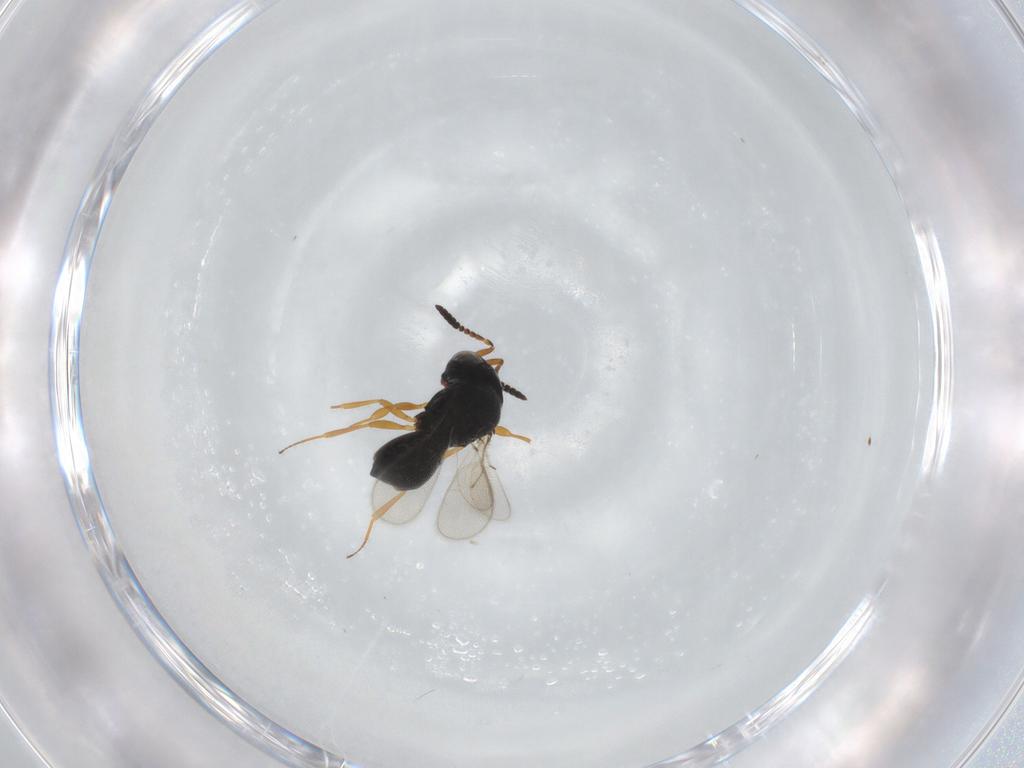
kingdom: Animalia
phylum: Arthropoda
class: Insecta
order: Hymenoptera
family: Scelionidae
